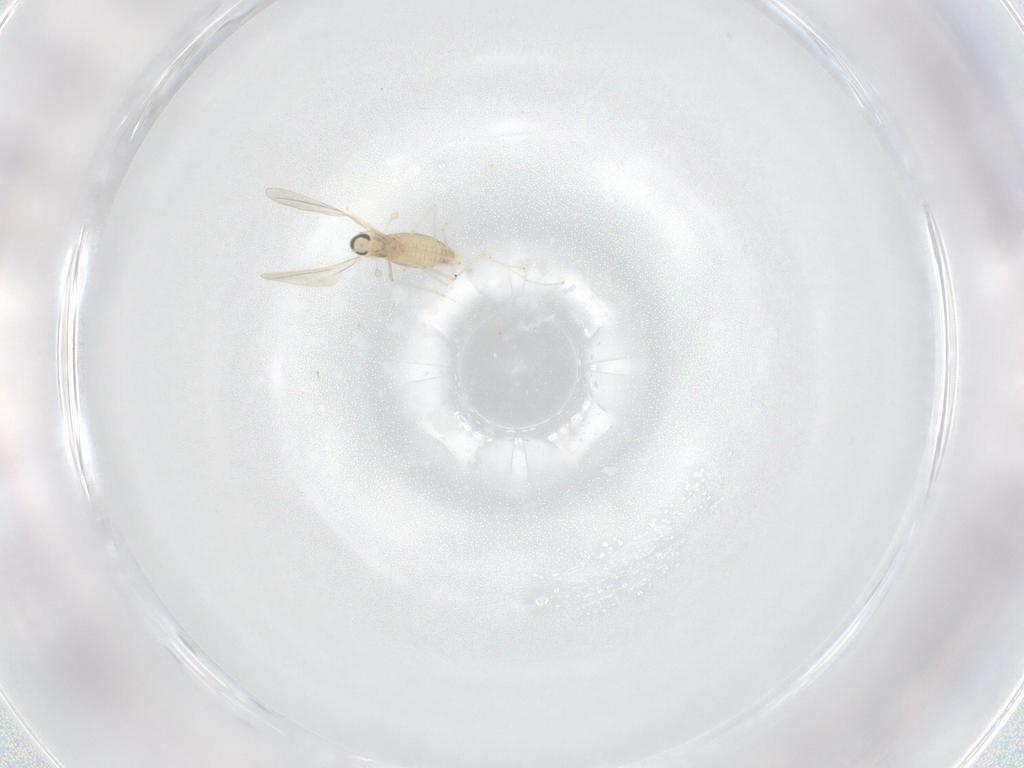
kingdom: Animalia
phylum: Arthropoda
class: Insecta
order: Diptera
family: Cecidomyiidae
